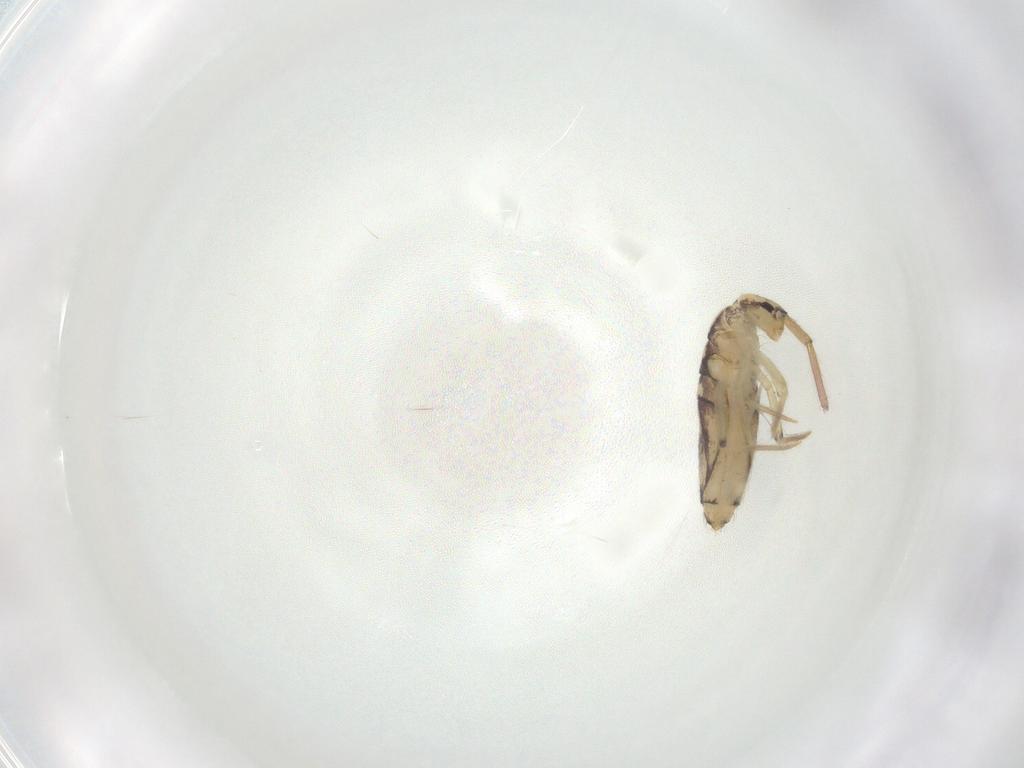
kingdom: Animalia
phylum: Arthropoda
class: Collembola
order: Entomobryomorpha
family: Entomobryidae
